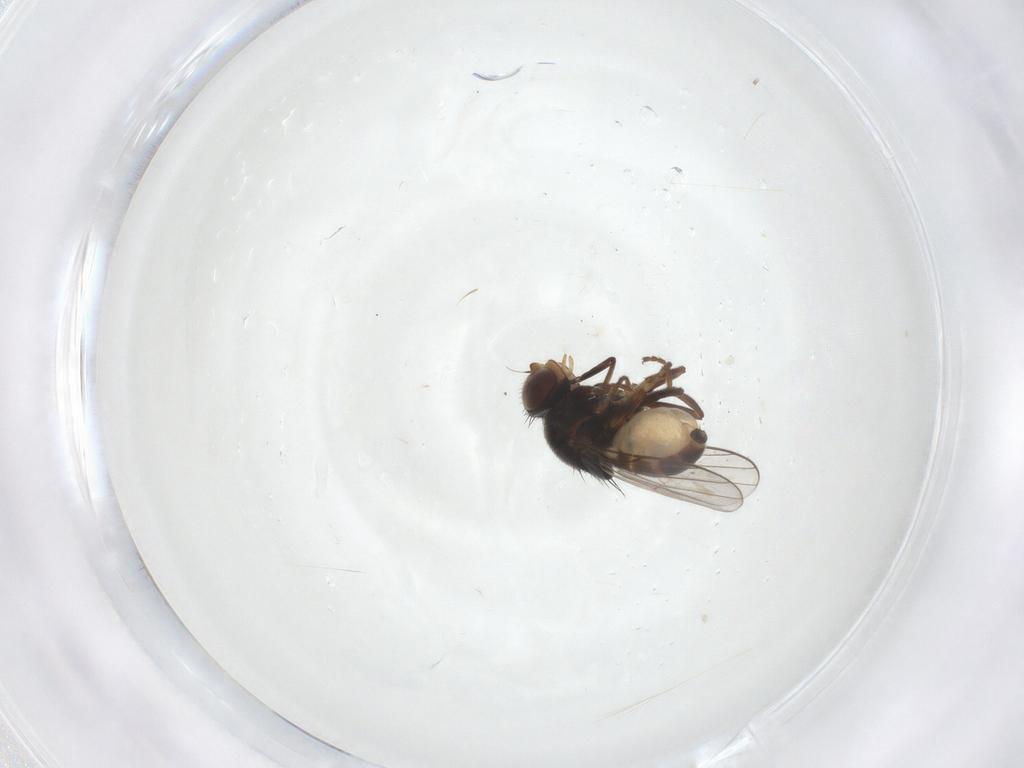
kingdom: Animalia
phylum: Arthropoda
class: Insecta
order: Diptera
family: Chloropidae
